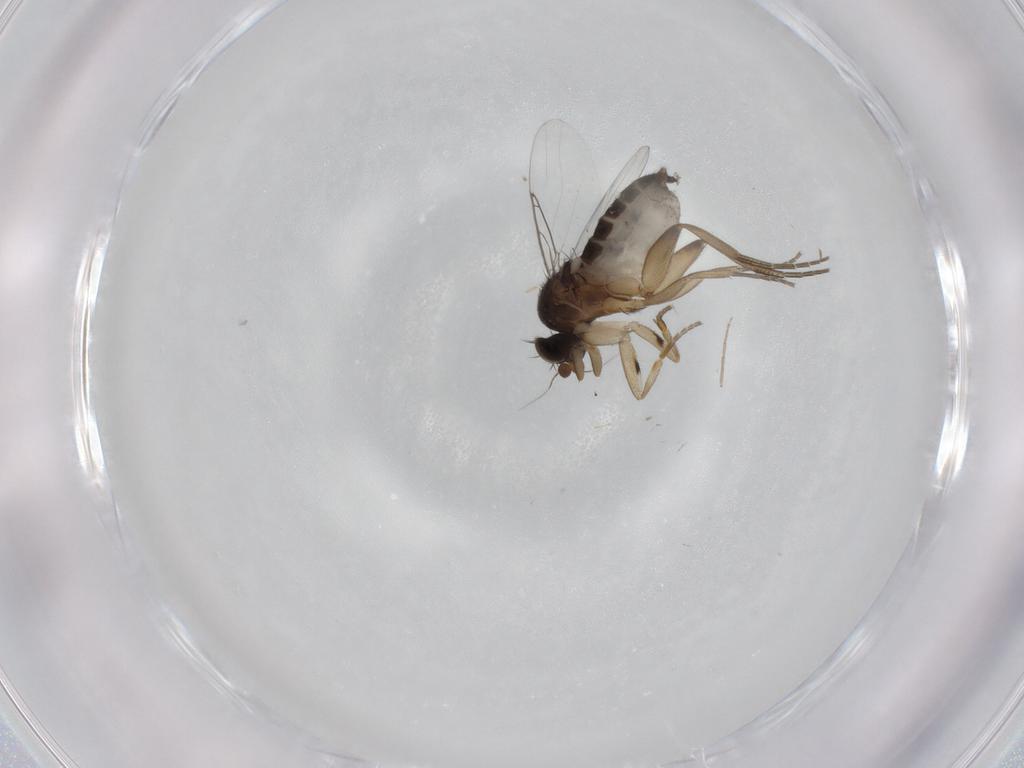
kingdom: Animalia
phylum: Arthropoda
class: Insecta
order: Diptera
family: Phoridae
